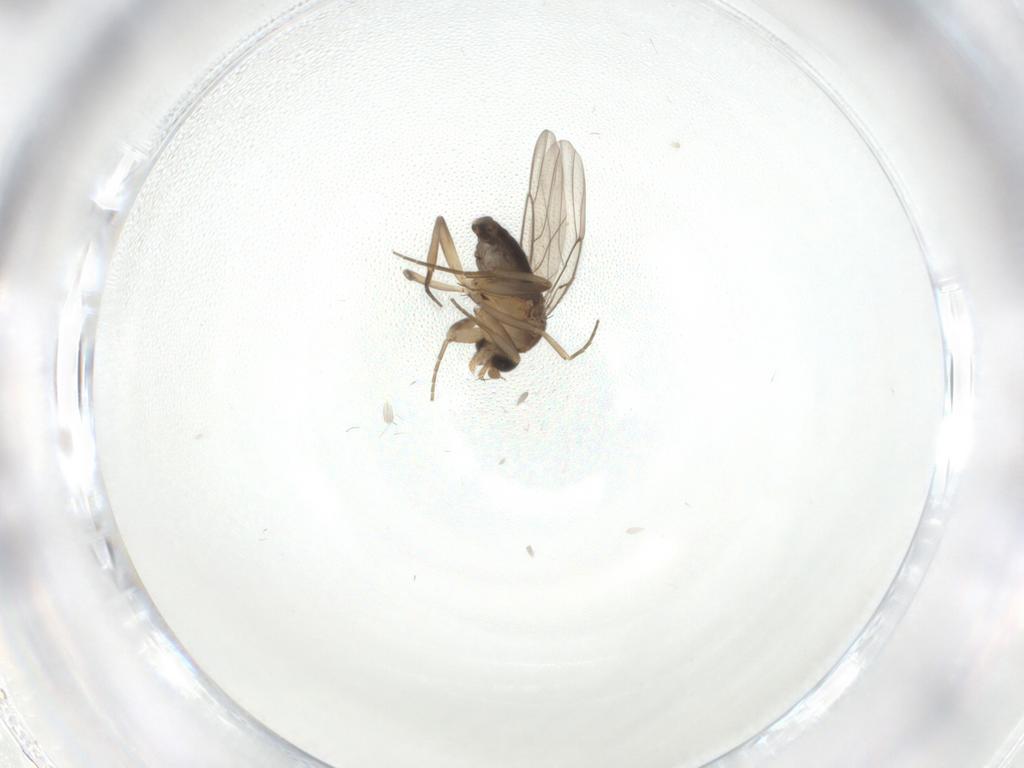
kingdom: Animalia
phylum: Arthropoda
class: Insecta
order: Diptera
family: Phoridae
